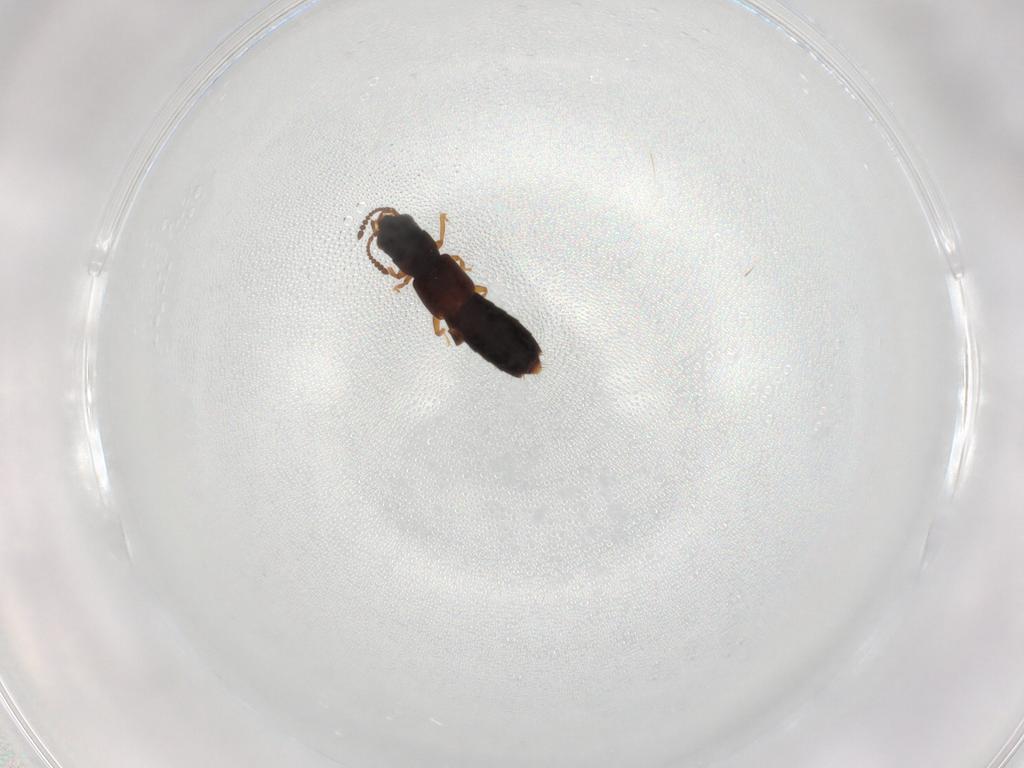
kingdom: Animalia
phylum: Arthropoda
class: Insecta
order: Coleoptera
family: Staphylinidae
